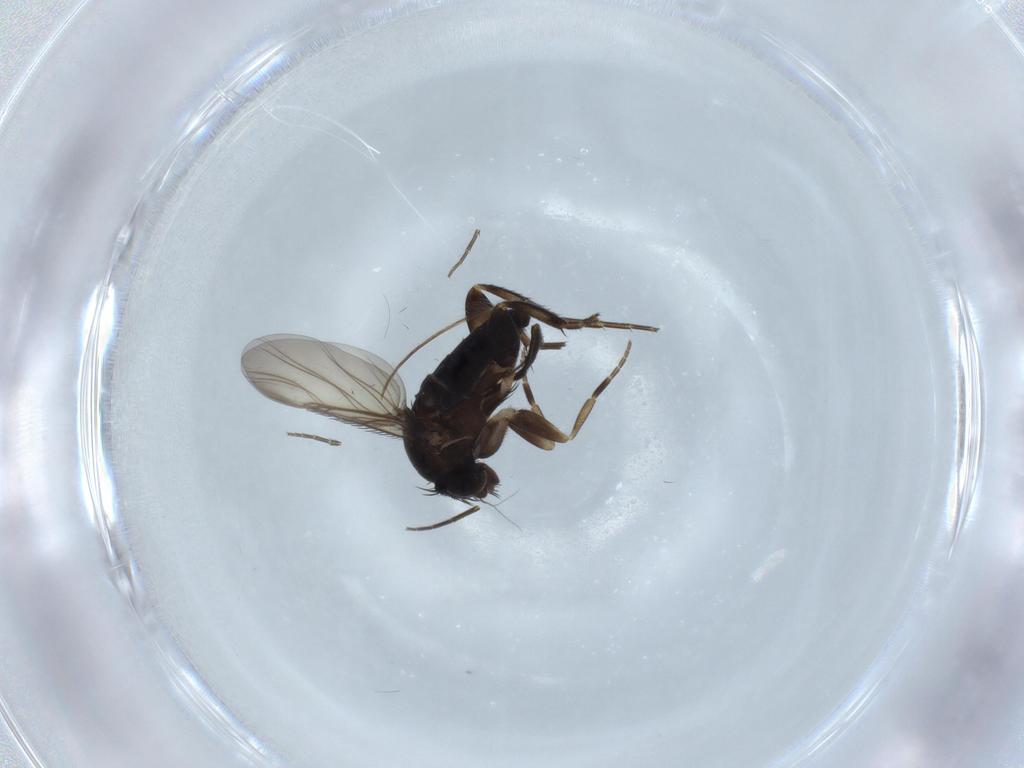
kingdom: Animalia
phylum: Arthropoda
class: Insecta
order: Diptera
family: Phoridae
